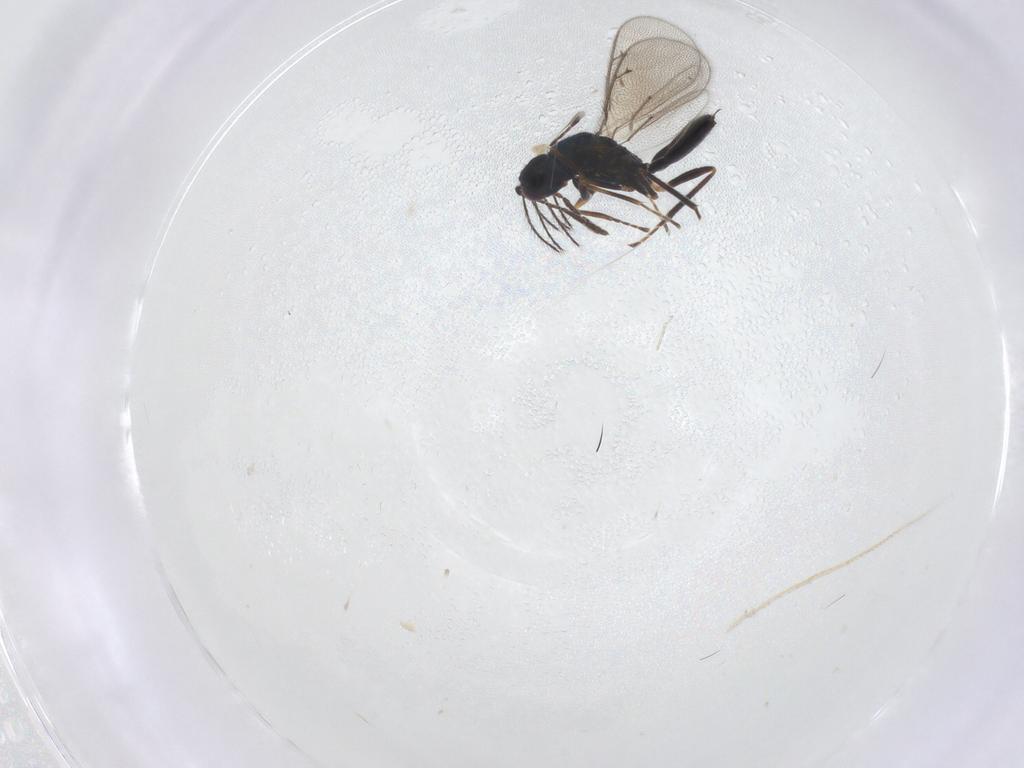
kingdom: Animalia
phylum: Arthropoda
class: Insecta
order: Hymenoptera
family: Eulophidae
